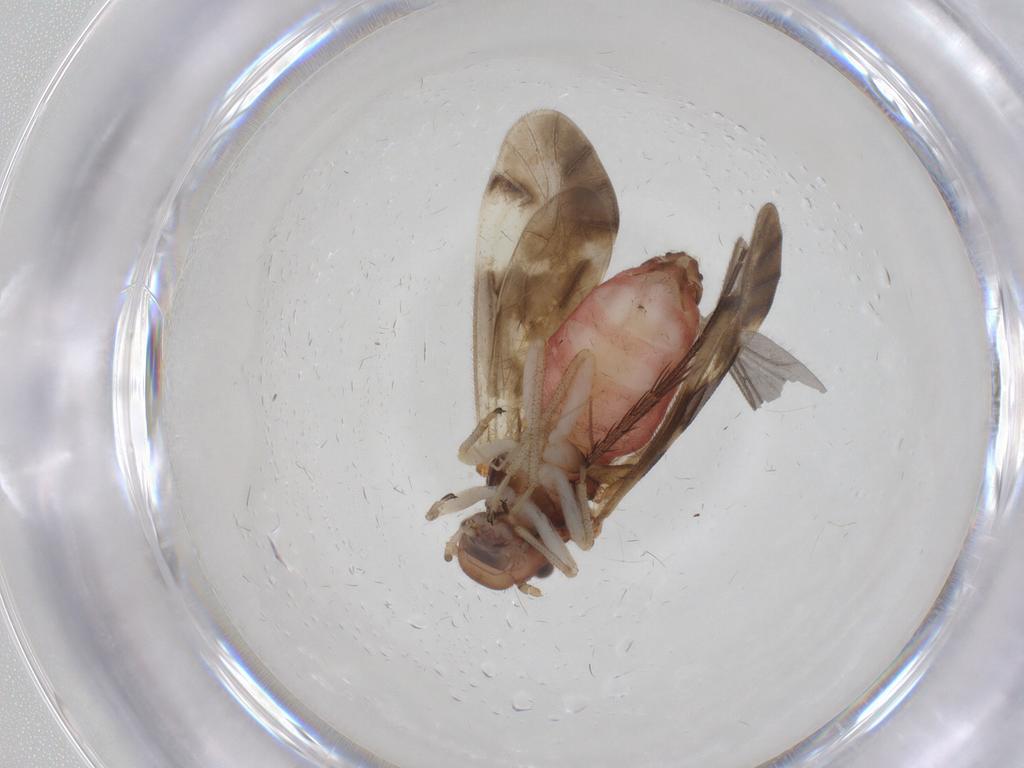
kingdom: Animalia
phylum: Arthropoda
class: Insecta
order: Psocodea
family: Caeciliusidae
